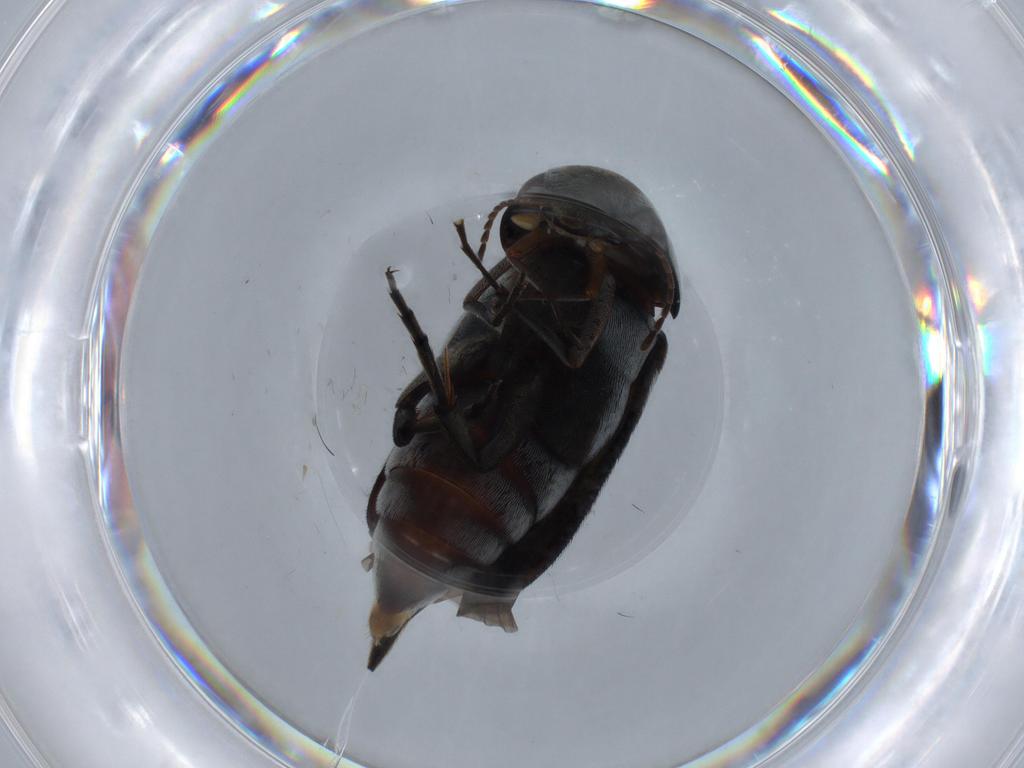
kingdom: Animalia
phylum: Arthropoda
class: Insecta
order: Coleoptera
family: Mordellidae
